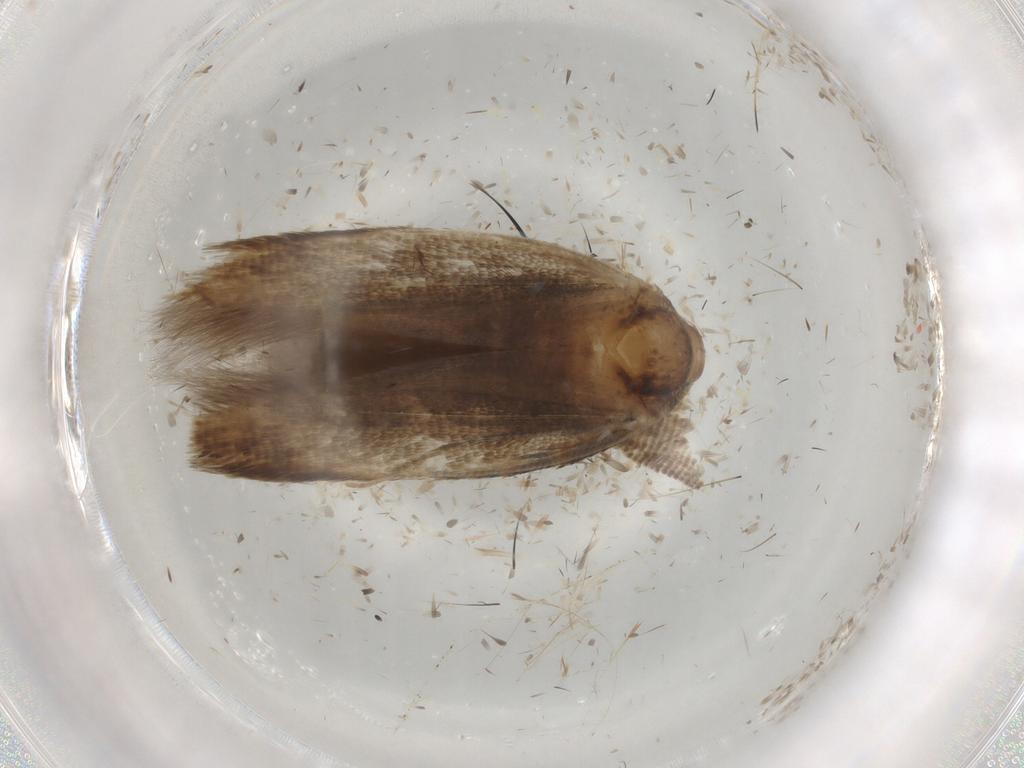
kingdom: Animalia
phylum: Arthropoda
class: Insecta
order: Lepidoptera
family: Cosmopterigidae
